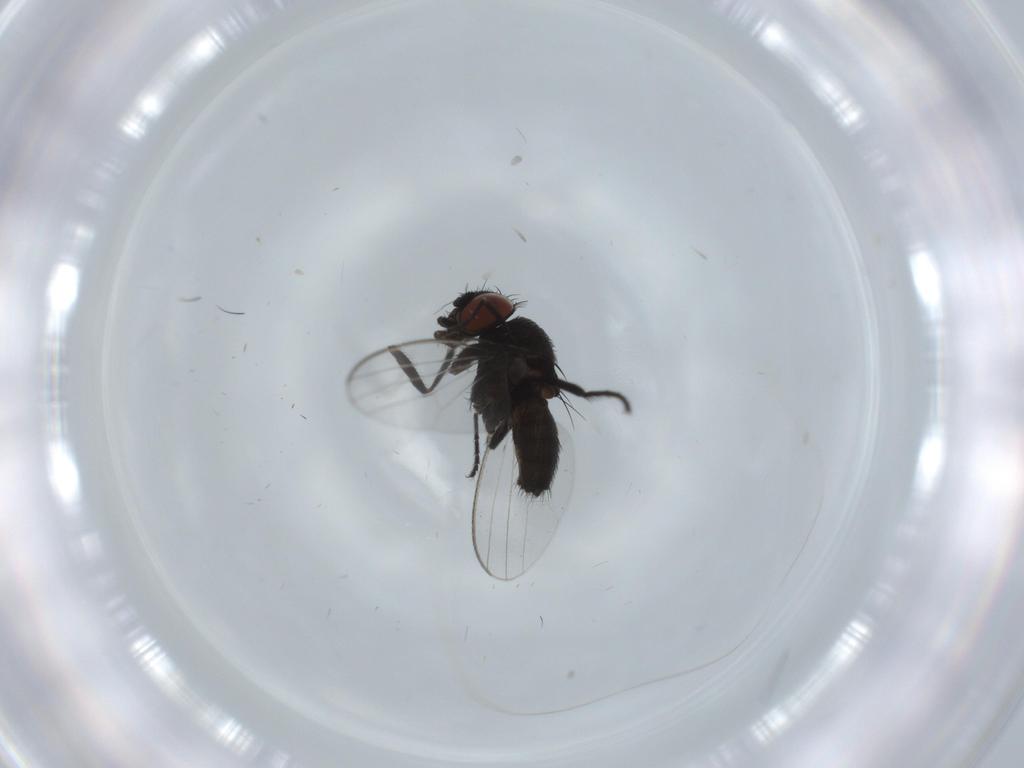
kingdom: Animalia
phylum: Arthropoda
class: Insecta
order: Diptera
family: Milichiidae
